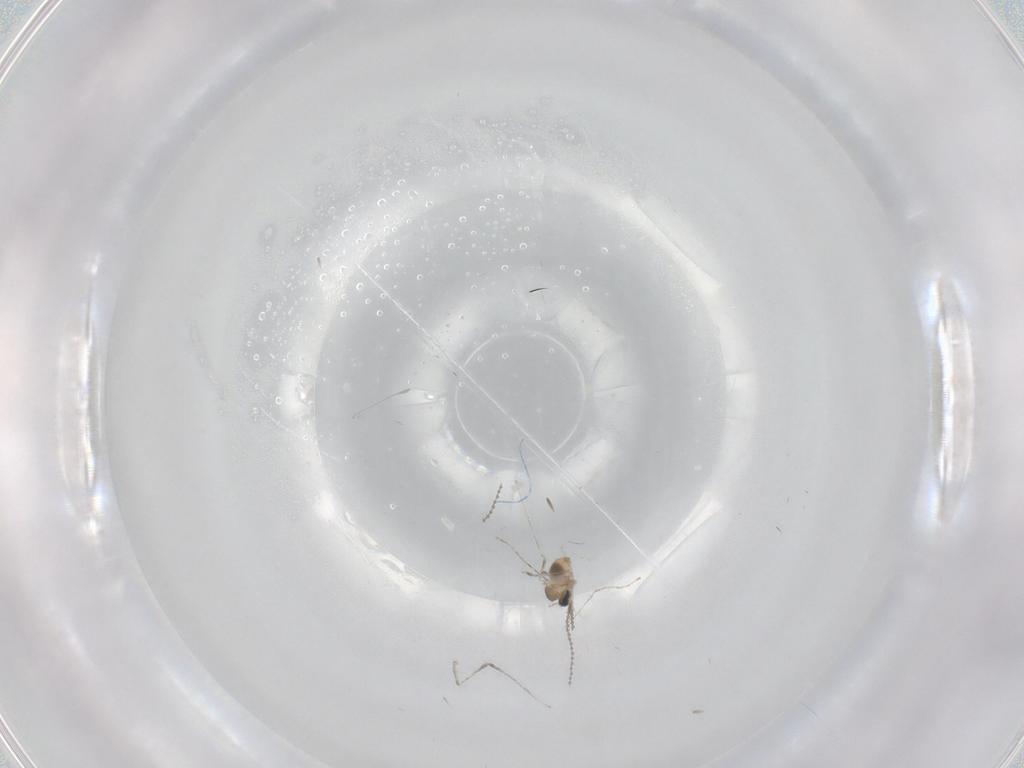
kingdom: Animalia
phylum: Arthropoda
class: Insecta
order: Diptera
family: Cecidomyiidae
